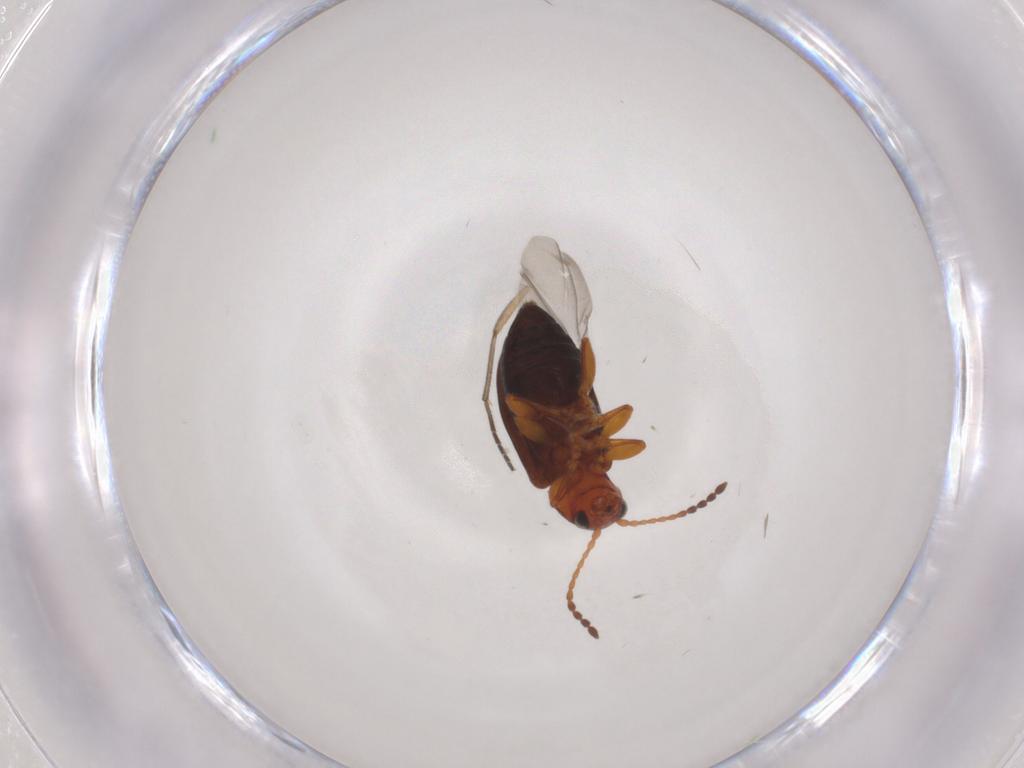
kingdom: Animalia
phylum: Arthropoda
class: Insecta
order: Coleoptera
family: Chrysomelidae
